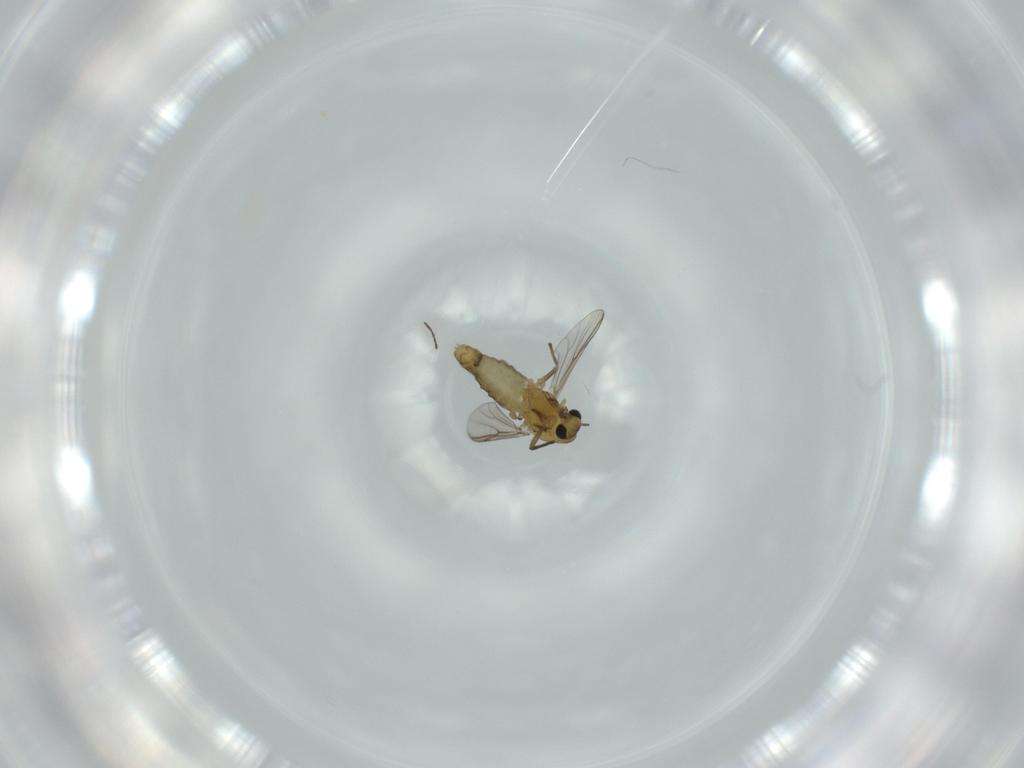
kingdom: Animalia
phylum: Arthropoda
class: Insecta
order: Diptera
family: Chironomidae
